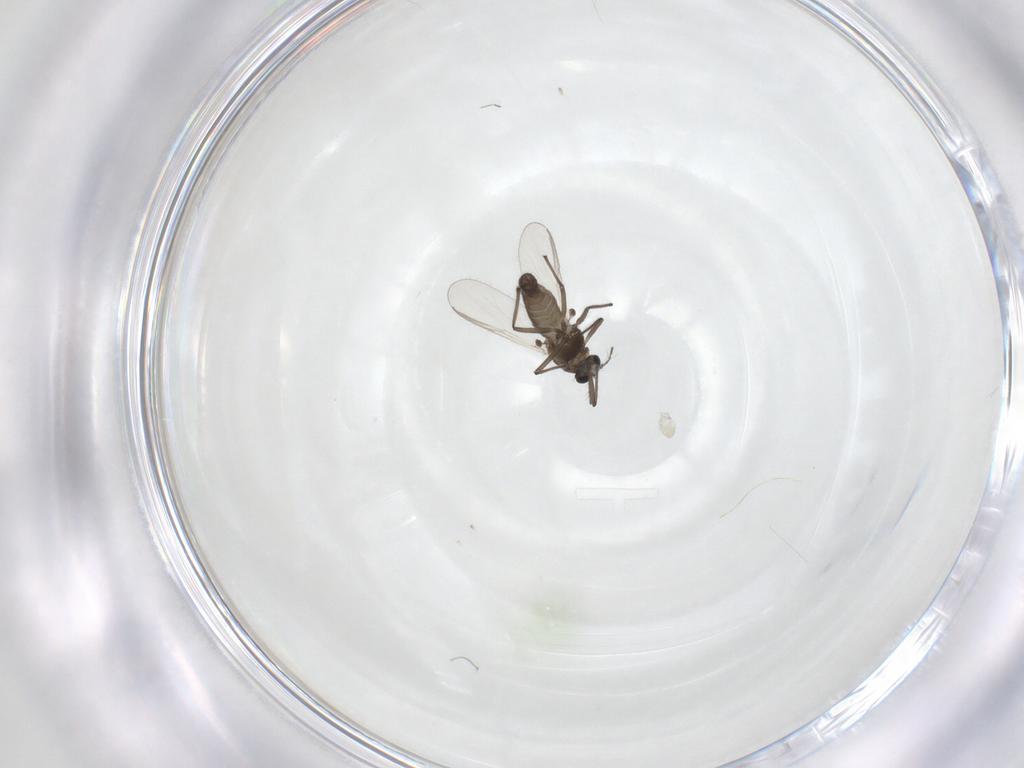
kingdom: Animalia
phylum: Arthropoda
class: Insecta
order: Diptera
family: Chironomidae
